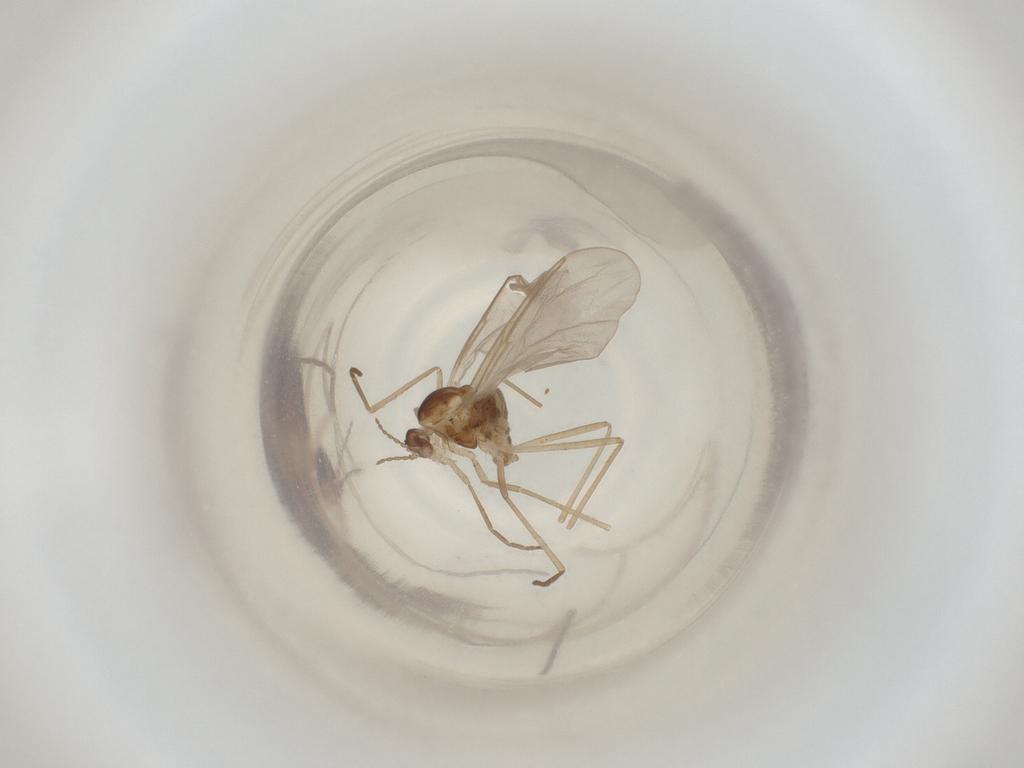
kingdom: Animalia
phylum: Arthropoda
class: Insecta
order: Diptera
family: Cecidomyiidae
